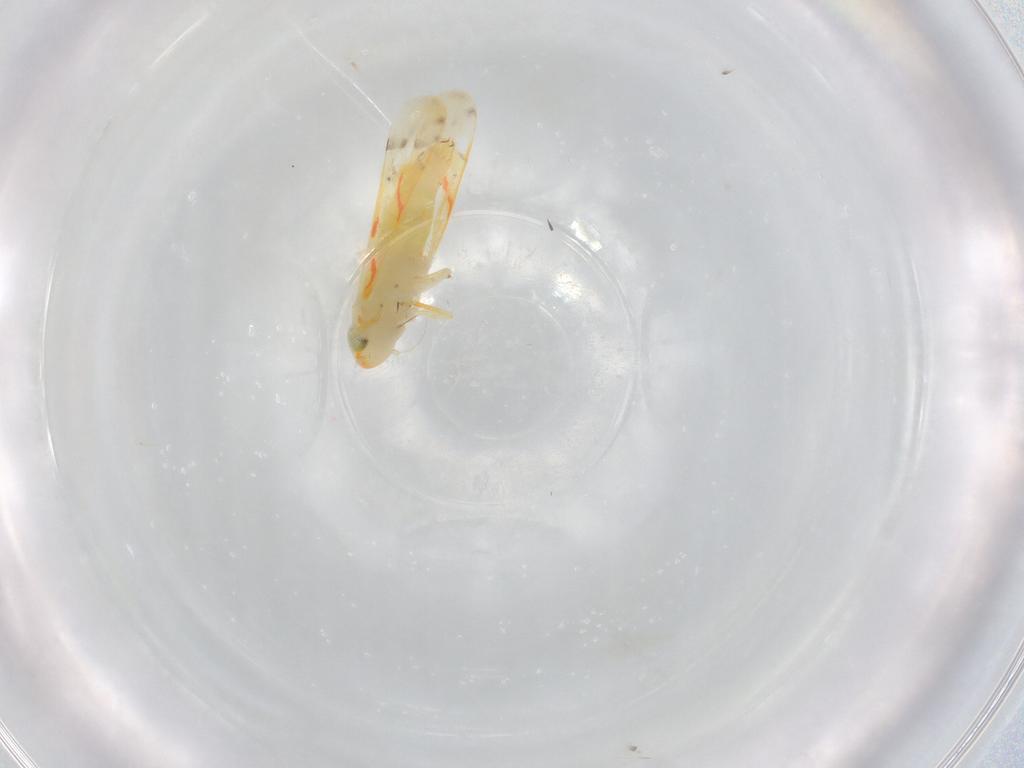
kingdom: Animalia
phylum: Arthropoda
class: Insecta
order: Hemiptera
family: Cicadellidae
